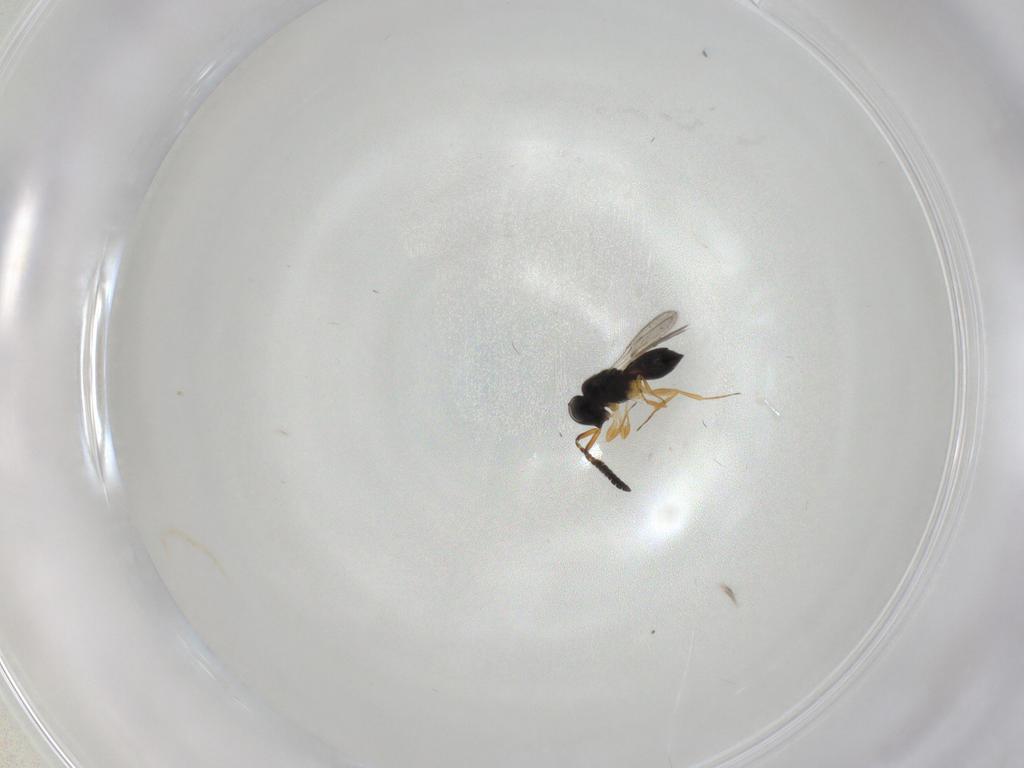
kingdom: Animalia
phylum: Arthropoda
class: Insecta
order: Hymenoptera
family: Scelionidae
